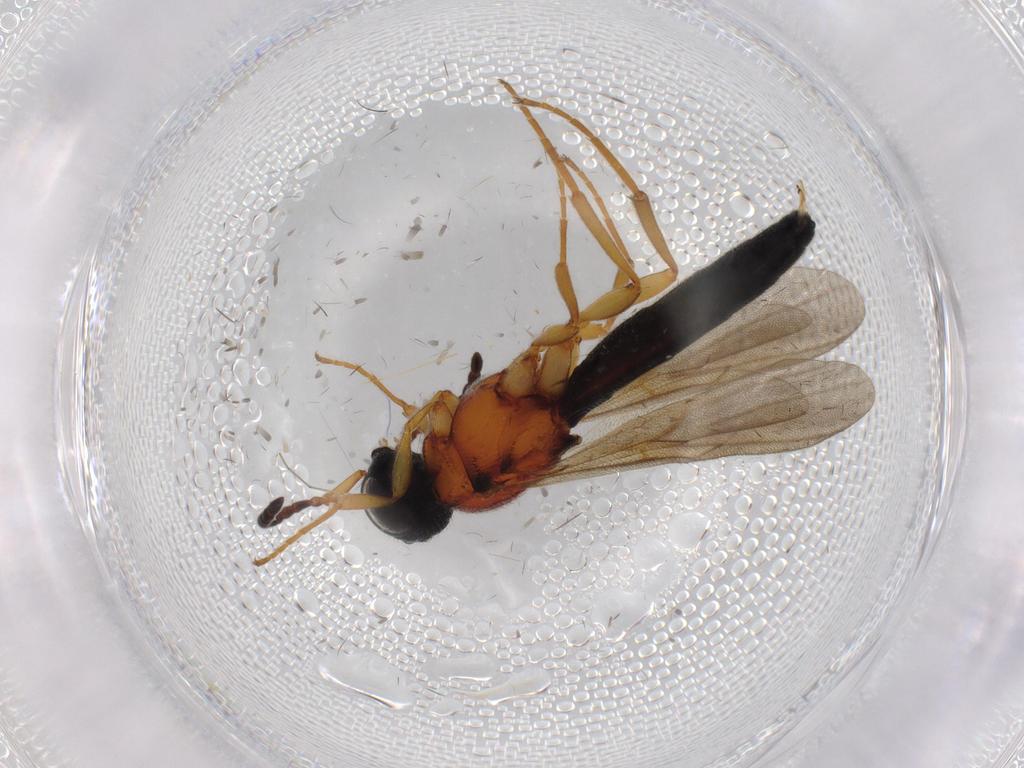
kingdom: Animalia
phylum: Arthropoda
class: Insecta
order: Hymenoptera
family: Scelionidae
